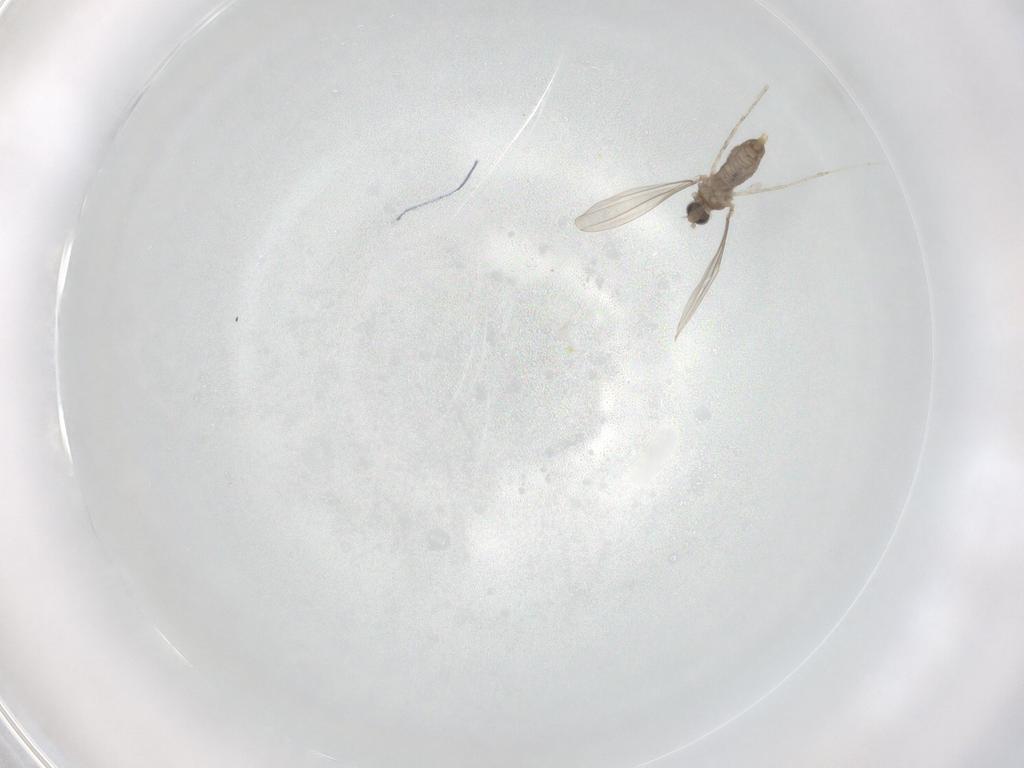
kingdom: Animalia
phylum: Arthropoda
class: Insecta
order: Diptera
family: Cecidomyiidae
